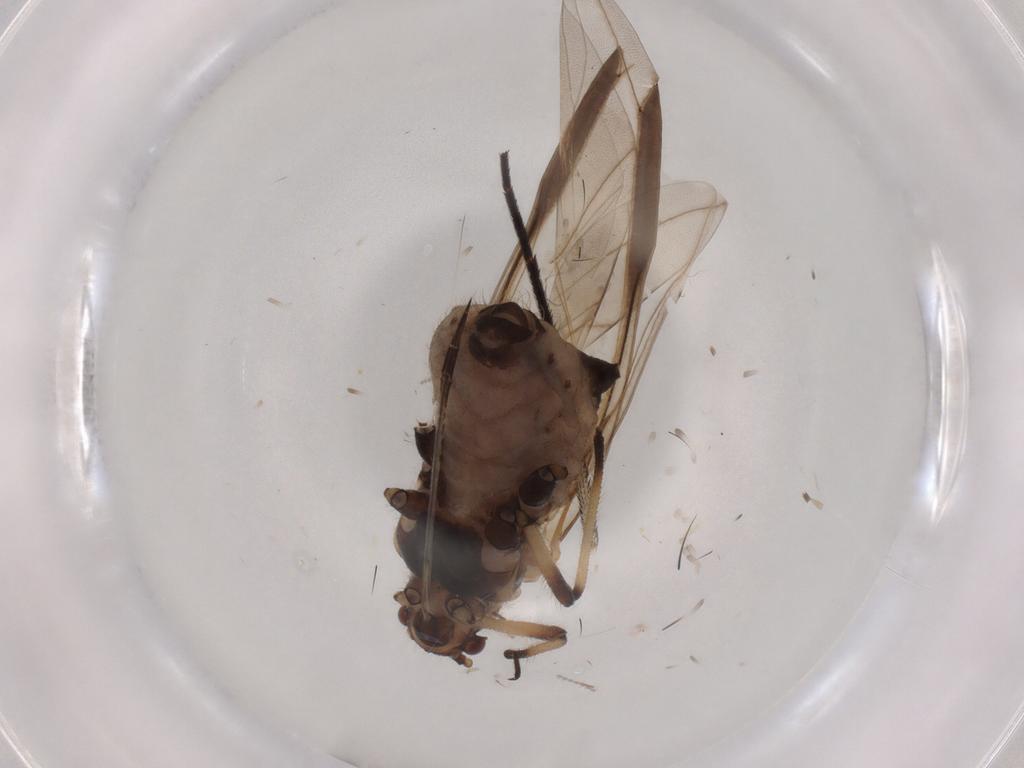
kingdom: Animalia
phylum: Arthropoda
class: Insecta
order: Hemiptera
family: Aphididae
